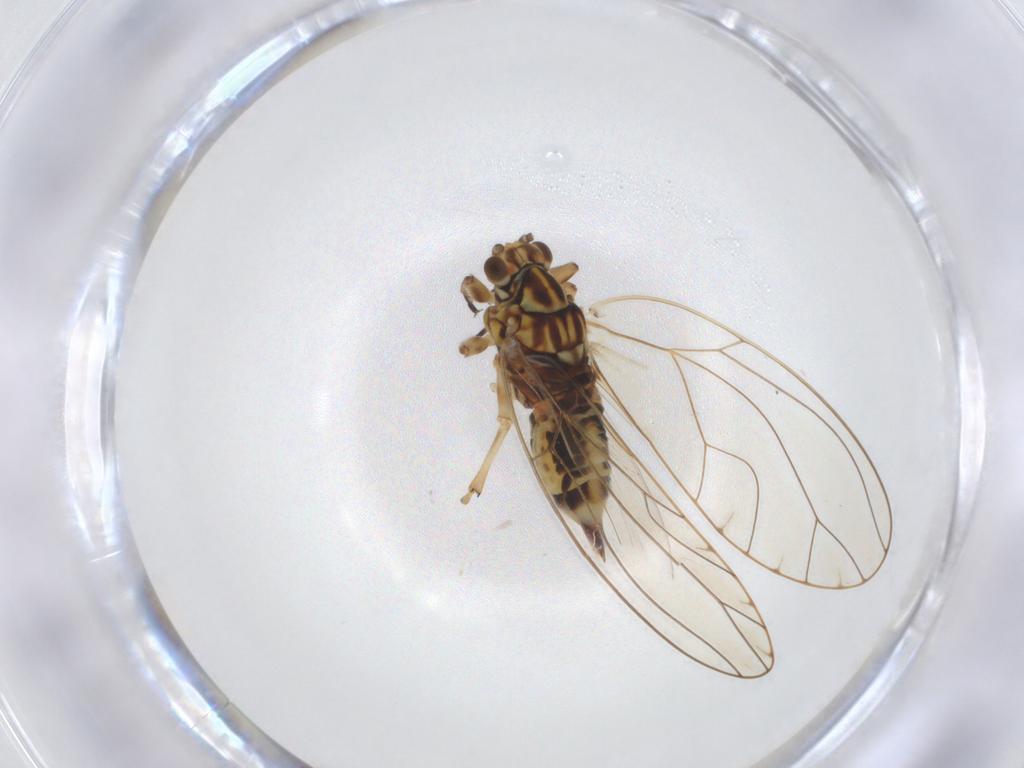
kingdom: Animalia
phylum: Arthropoda
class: Insecta
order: Hemiptera
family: Triozidae
